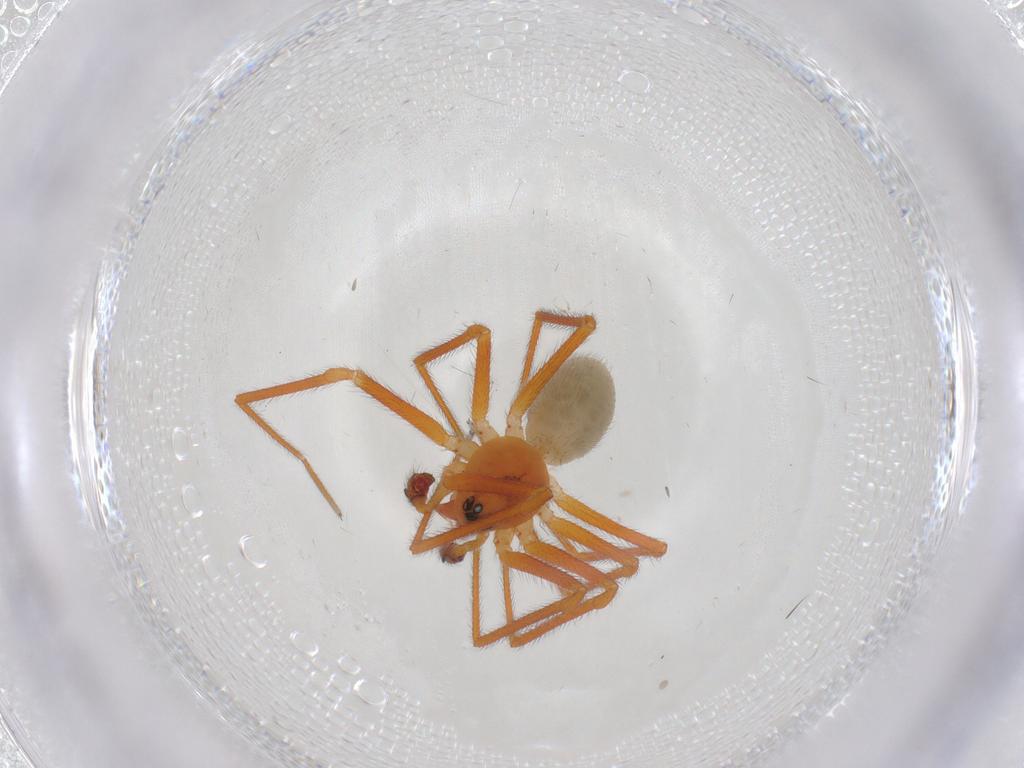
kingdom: Animalia
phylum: Arthropoda
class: Arachnida
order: Araneae
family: Linyphiidae
